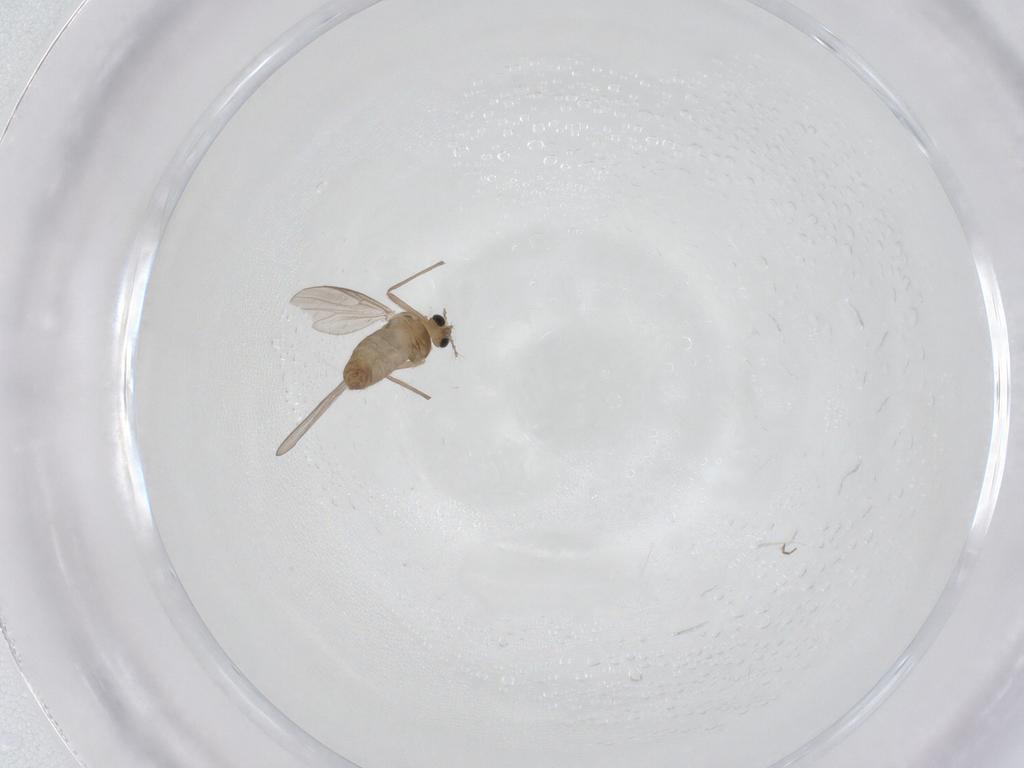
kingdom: Animalia
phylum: Arthropoda
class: Insecta
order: Diptera
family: Chironomidae
